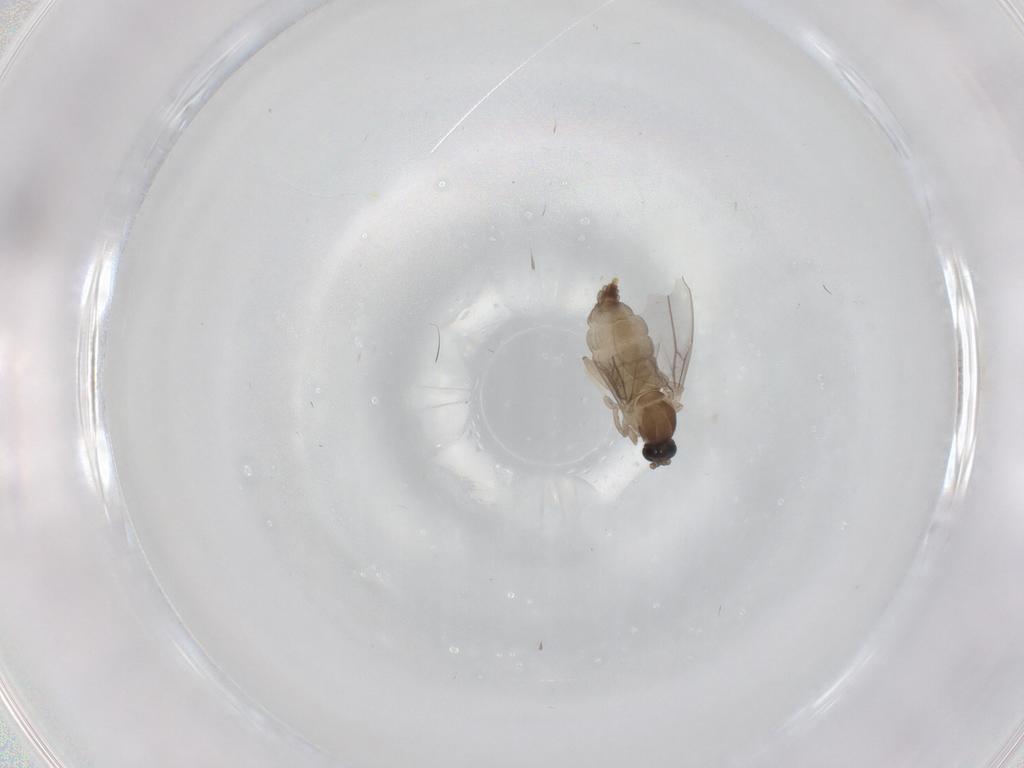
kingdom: Animalia
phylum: Arthropoda
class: Insecta
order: Diptera
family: Cecidomyiidae
